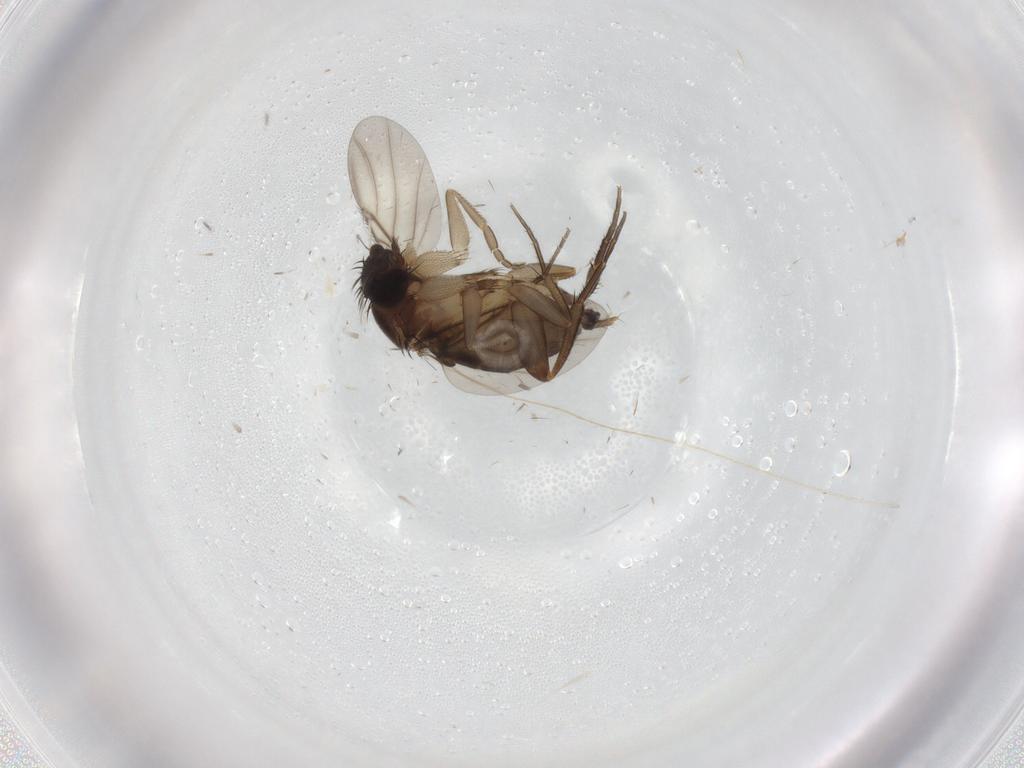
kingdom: Animalia
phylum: Arthropoda
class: Insecta
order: Diptera
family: Phoridae
